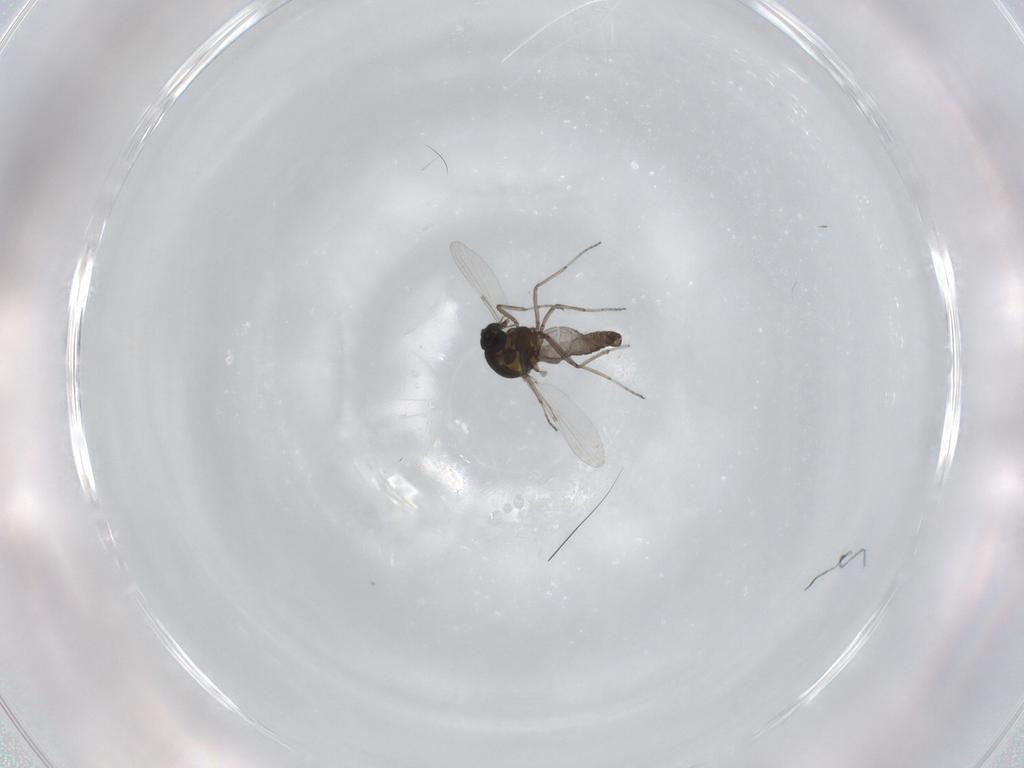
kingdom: Animalia
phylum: Arthropoda
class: Insecta
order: Diptera
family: Ceratopogonidae
